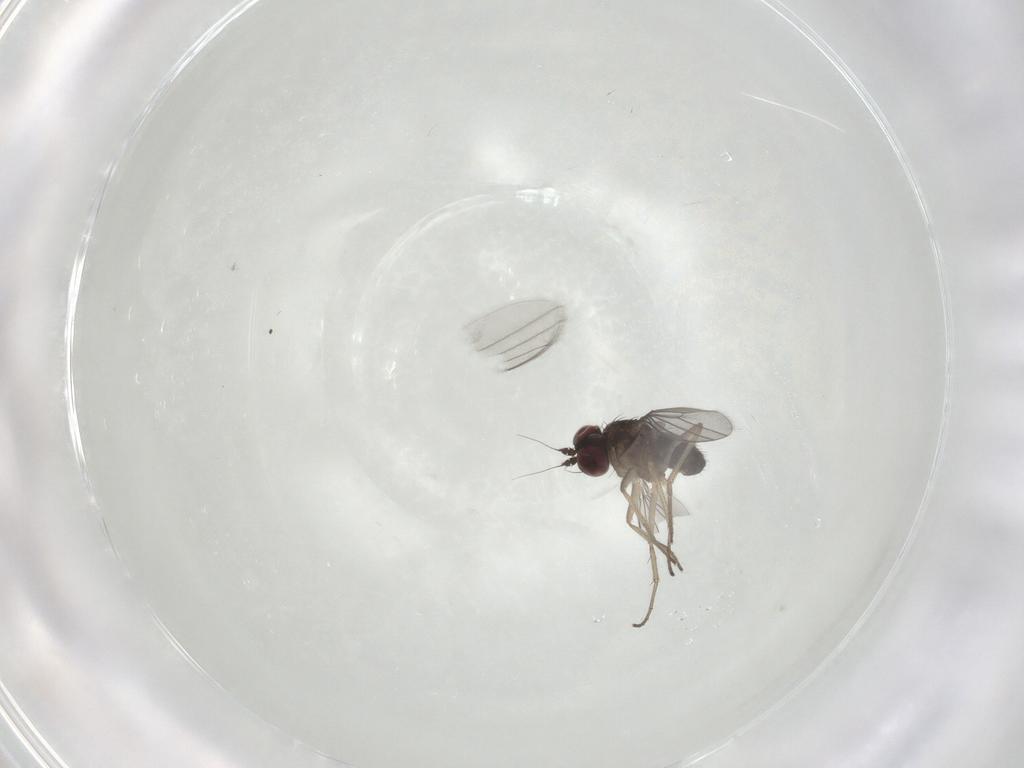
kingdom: Animalia
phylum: Arthropoda
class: Insecta
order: Diptera
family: Dolichopodidae
